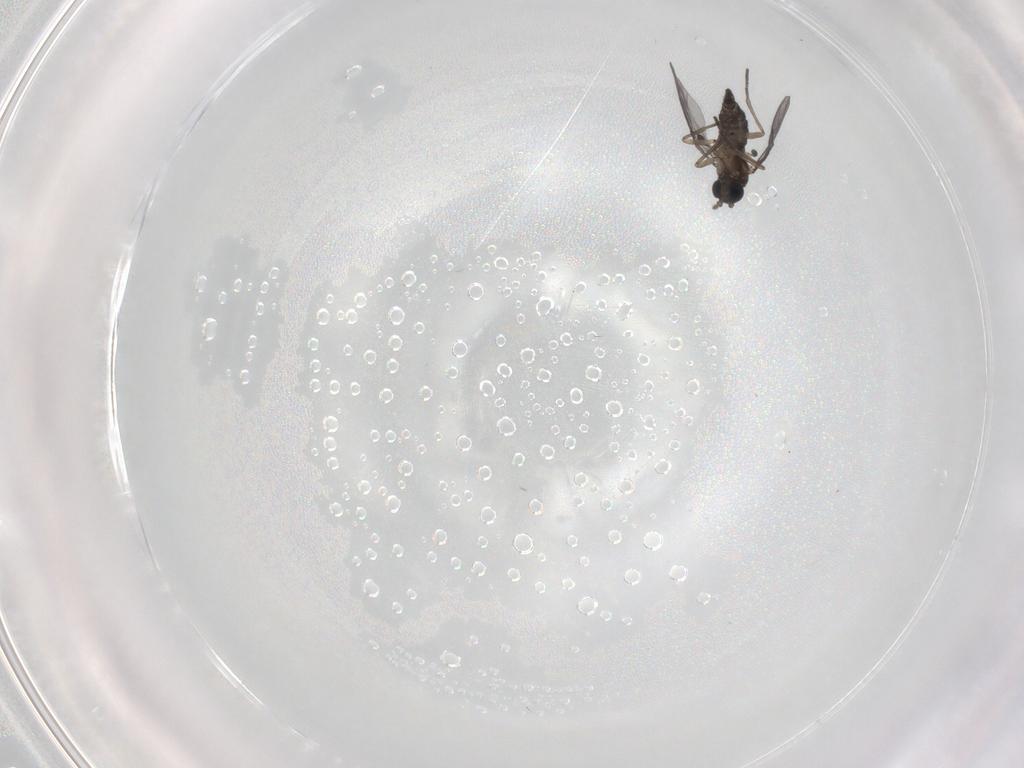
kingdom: Animalia
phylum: Arthropoda
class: Insecta
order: Diptera
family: Sciaridae
